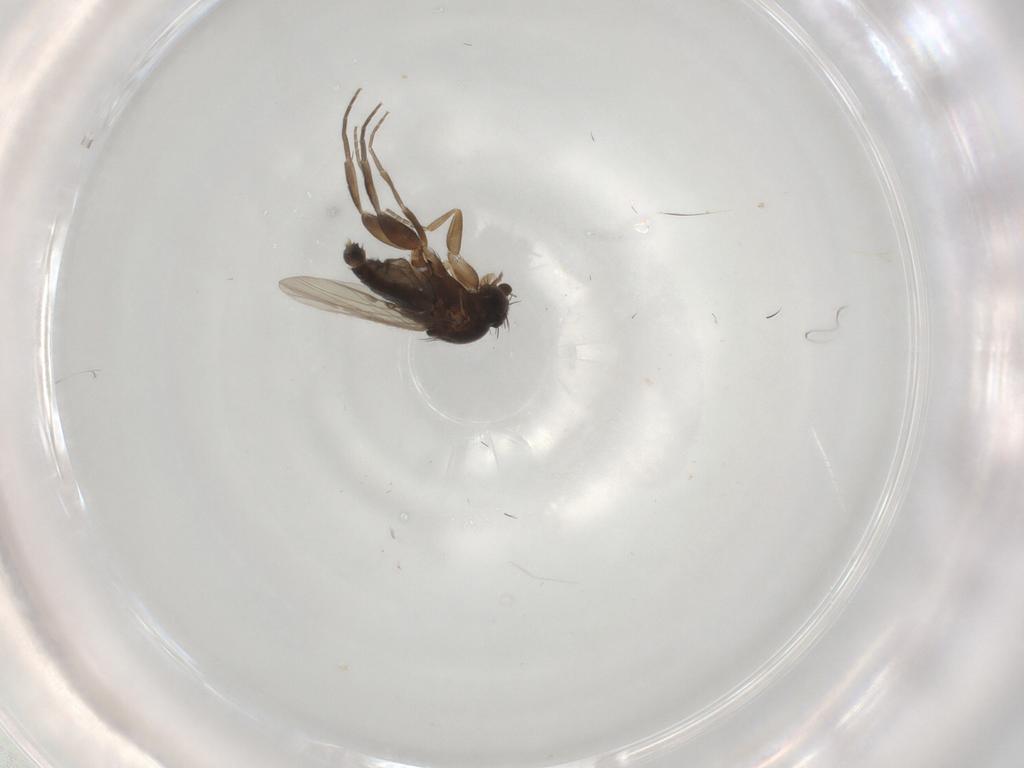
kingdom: Animalia
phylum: Arthropoda
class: Insecta
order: Diptera
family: Phoridae
